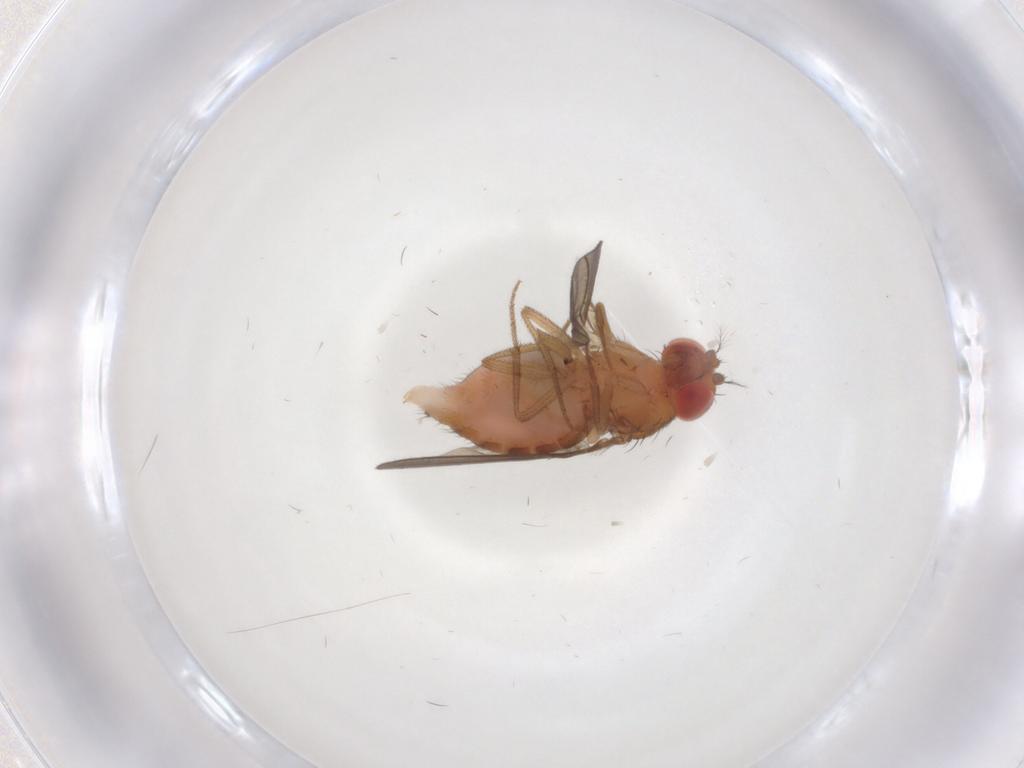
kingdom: Animalia
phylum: Arthropoda
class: Insecta
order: Diptera
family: Drosophilidae
